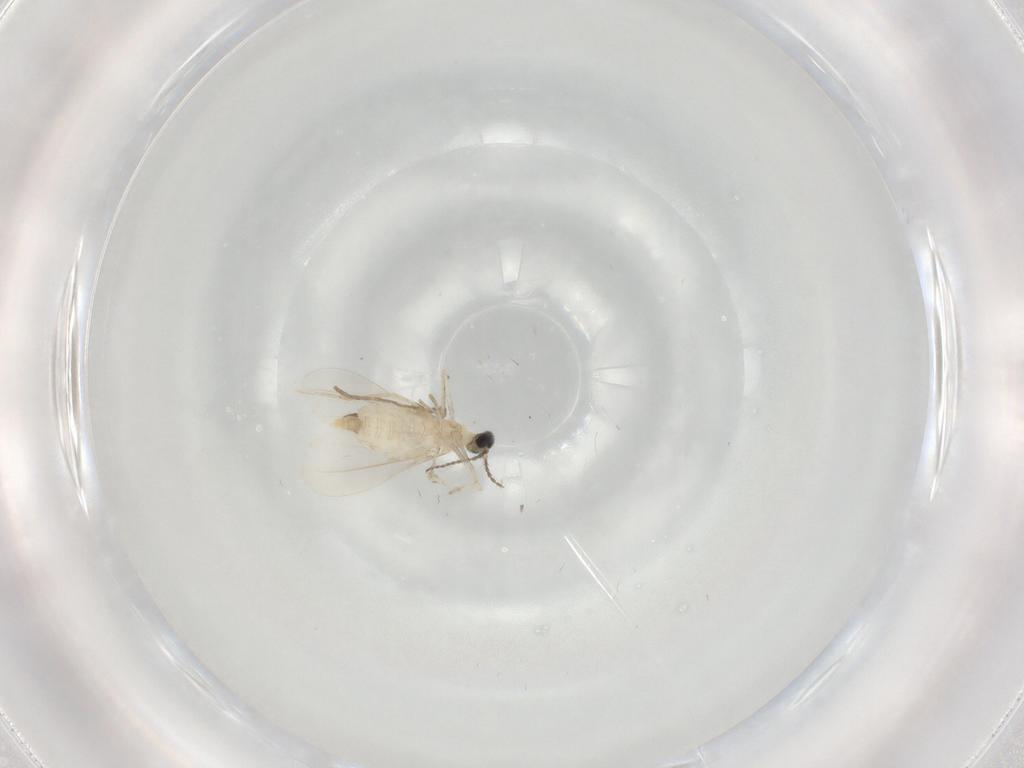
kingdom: Animalia
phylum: Arthropoda
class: Insecta
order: Diptera
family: Cecidomyiidae
